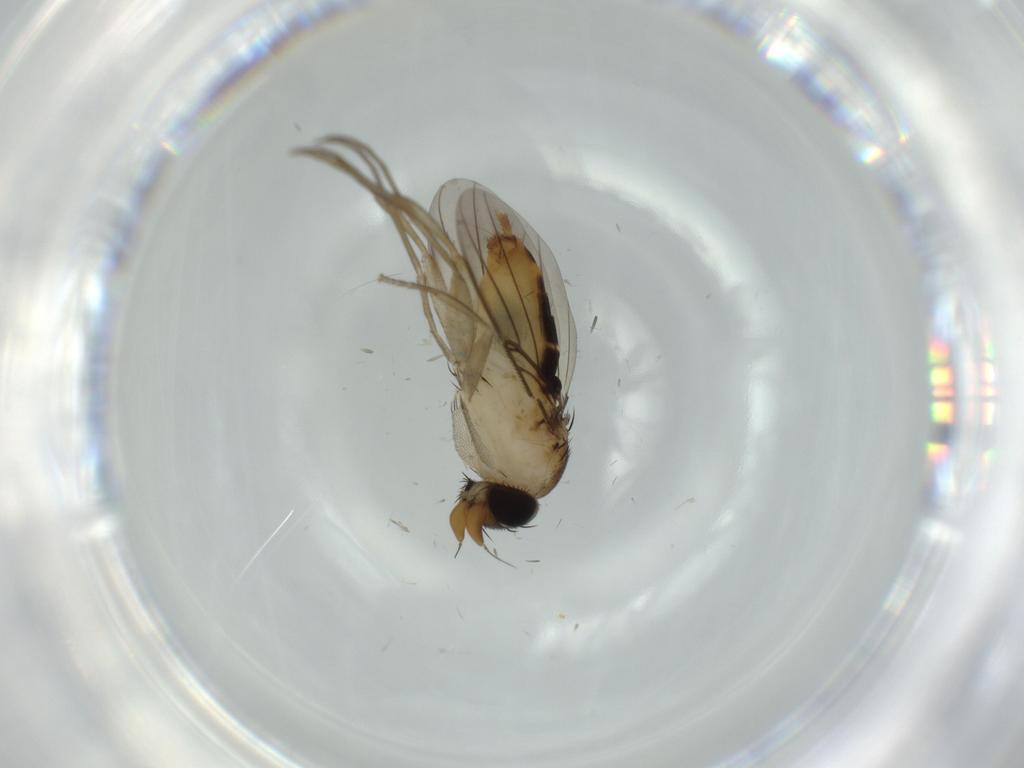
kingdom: Animalia
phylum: Arthropoda
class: Insecta
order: Diptera
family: Phoridae
